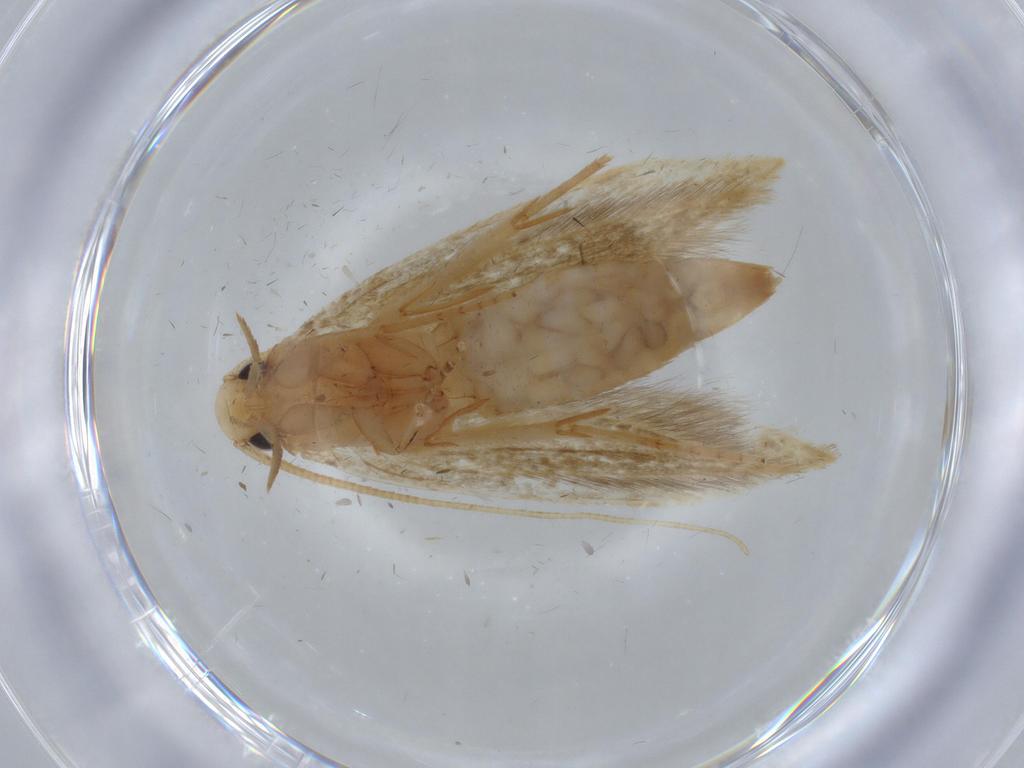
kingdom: Animalia
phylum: Arthropoda
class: Insecta
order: Lepidoptera
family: Tineidae
